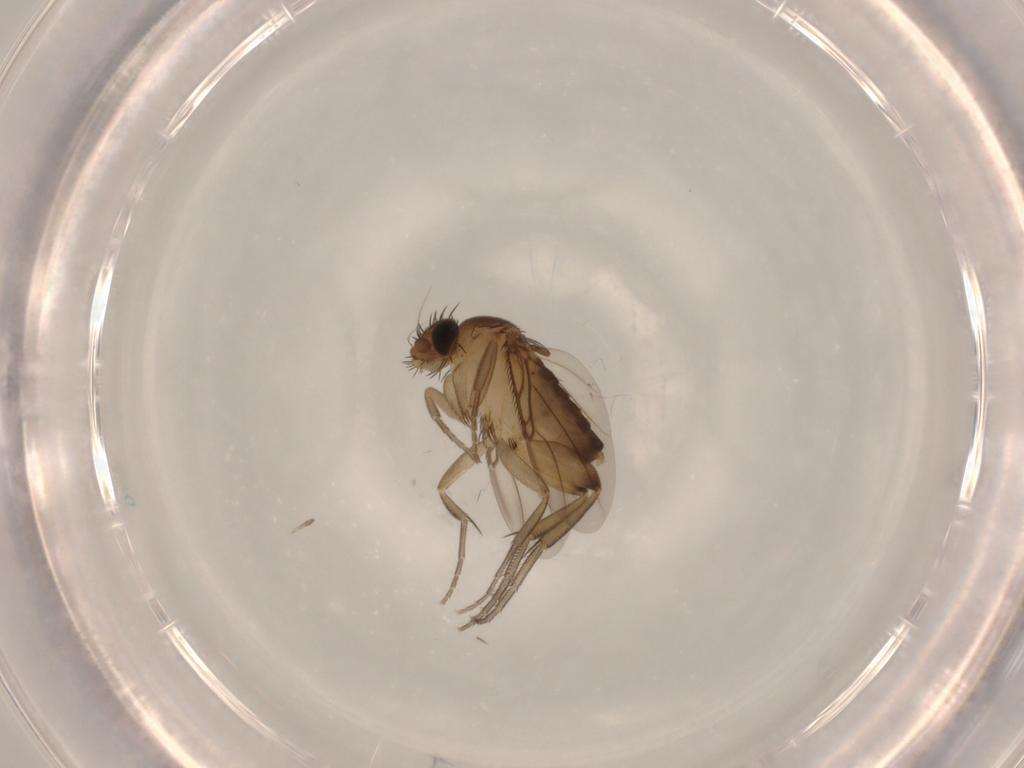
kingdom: Animalia
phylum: Arthropoda
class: Insecta
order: Diptera
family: Phoridae
